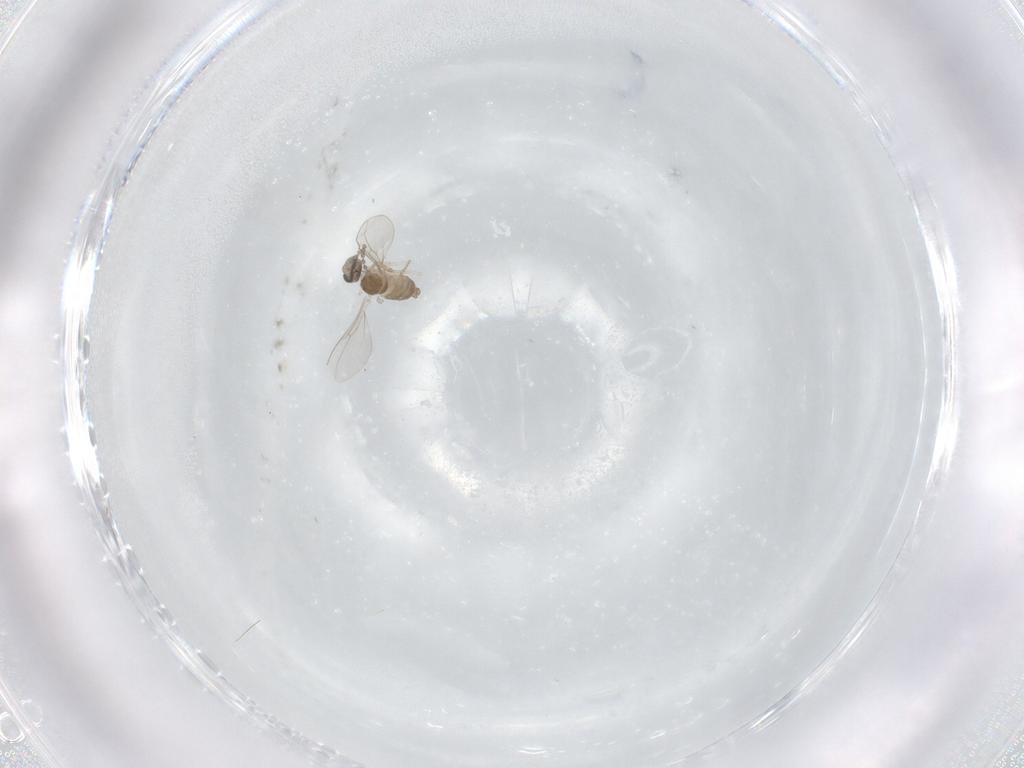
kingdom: Animalia
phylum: Arthropoda
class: Insecta
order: Diptera
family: Cecidomyiidae
